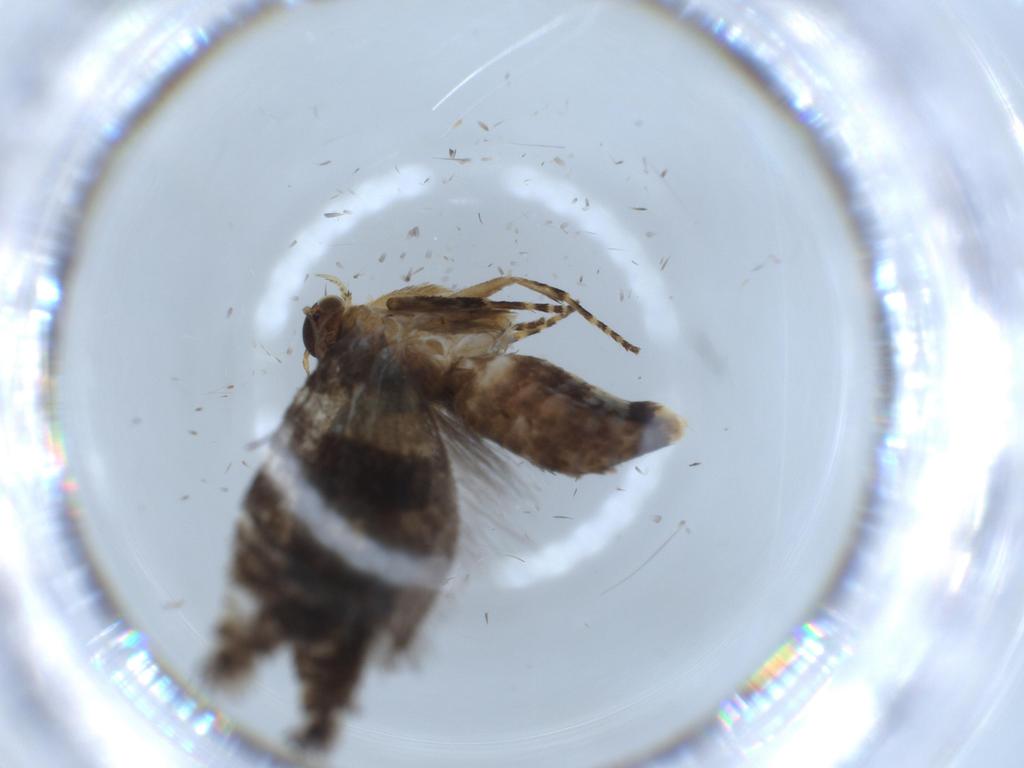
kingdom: Animalia
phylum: Arthropoda
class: Insecta
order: Lepidoptera
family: Glyphipterigidae
